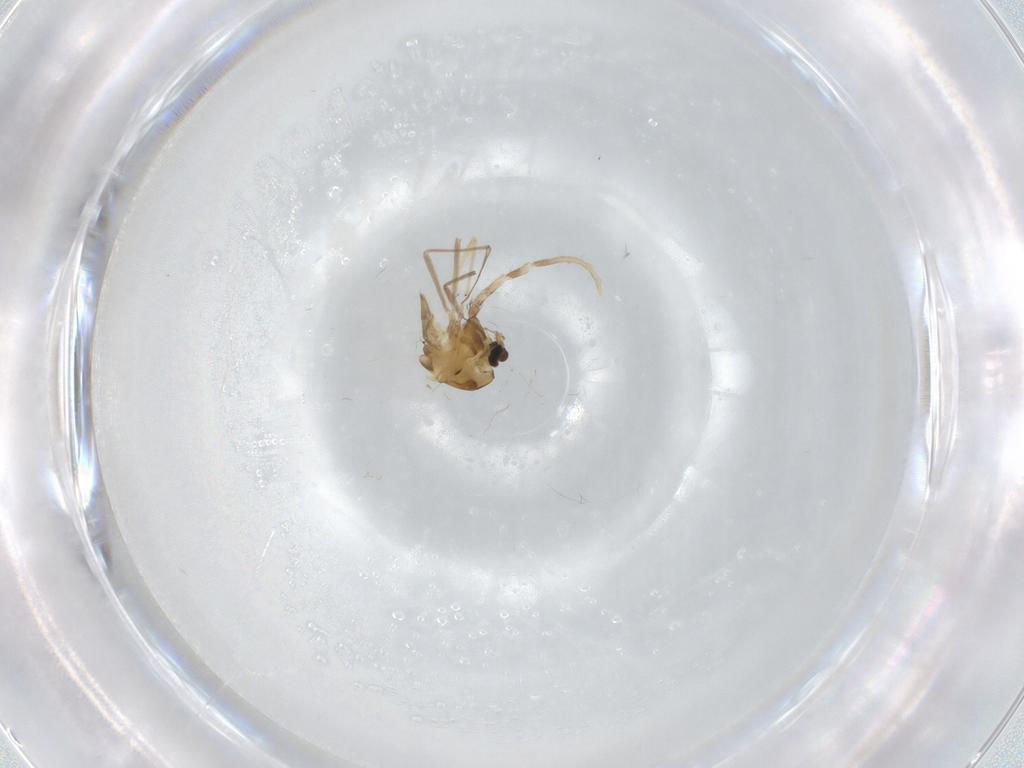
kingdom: Animalia
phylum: Arthropoda
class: Insecta
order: Diptera
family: Chironomidae
